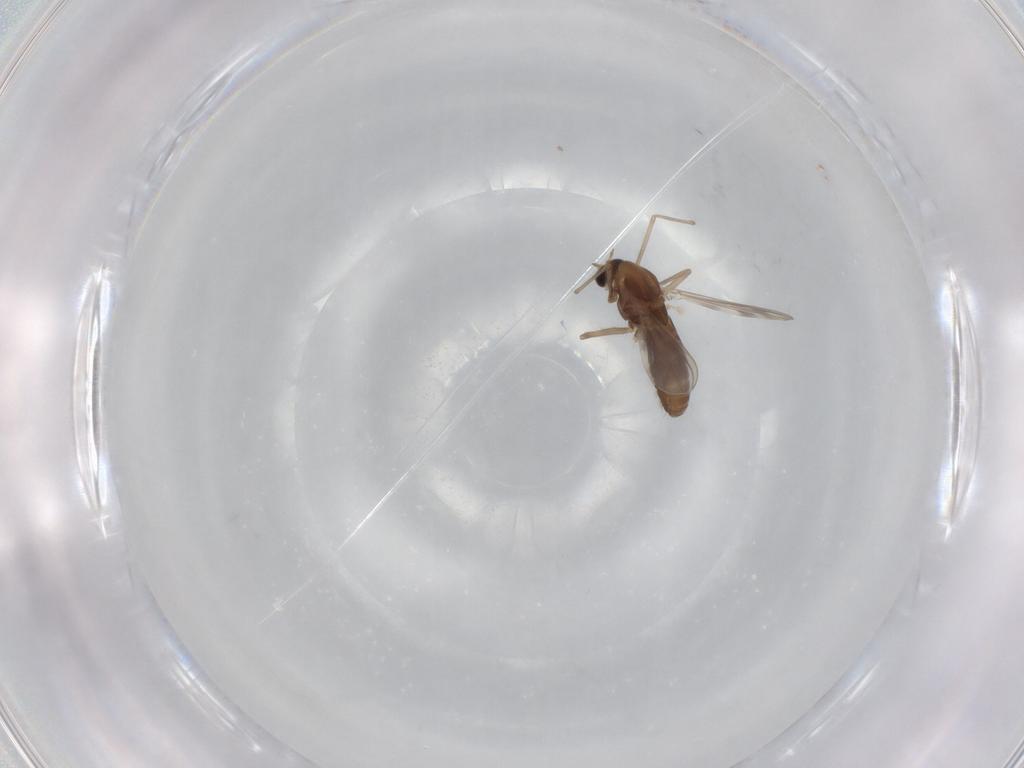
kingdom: Animalia
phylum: Arthropoda
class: Insecta
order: Diptera
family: Chironomidae
